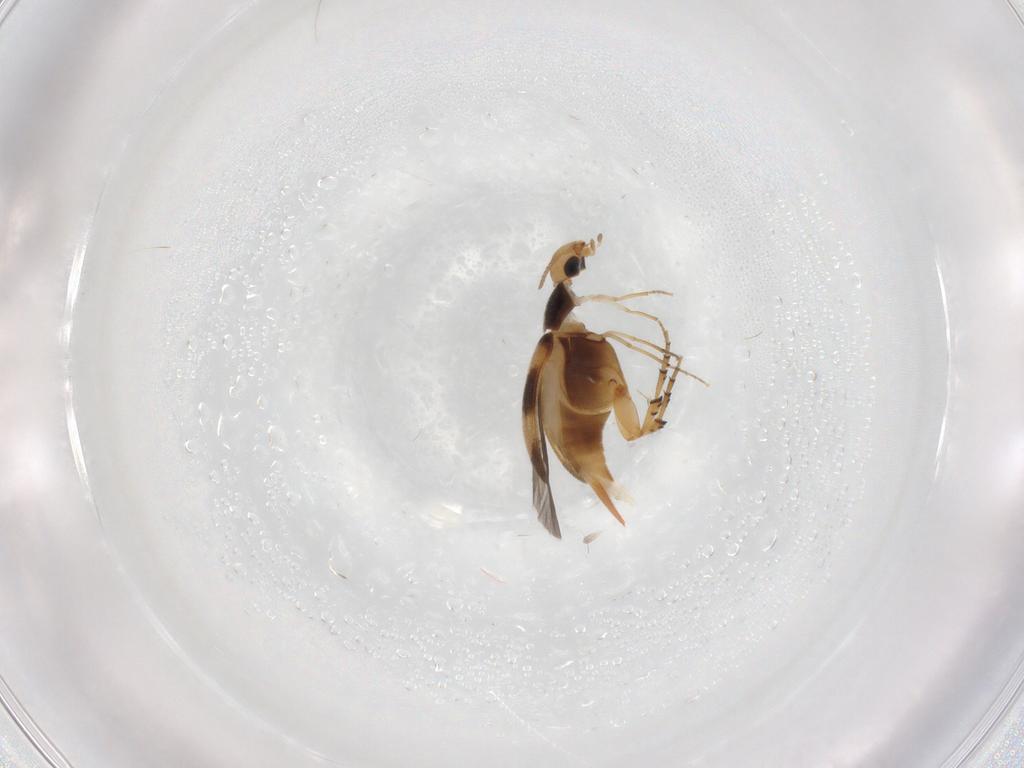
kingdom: Animalia
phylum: Arthropoda
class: Insecta
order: Coleoptera
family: Mordellidae
